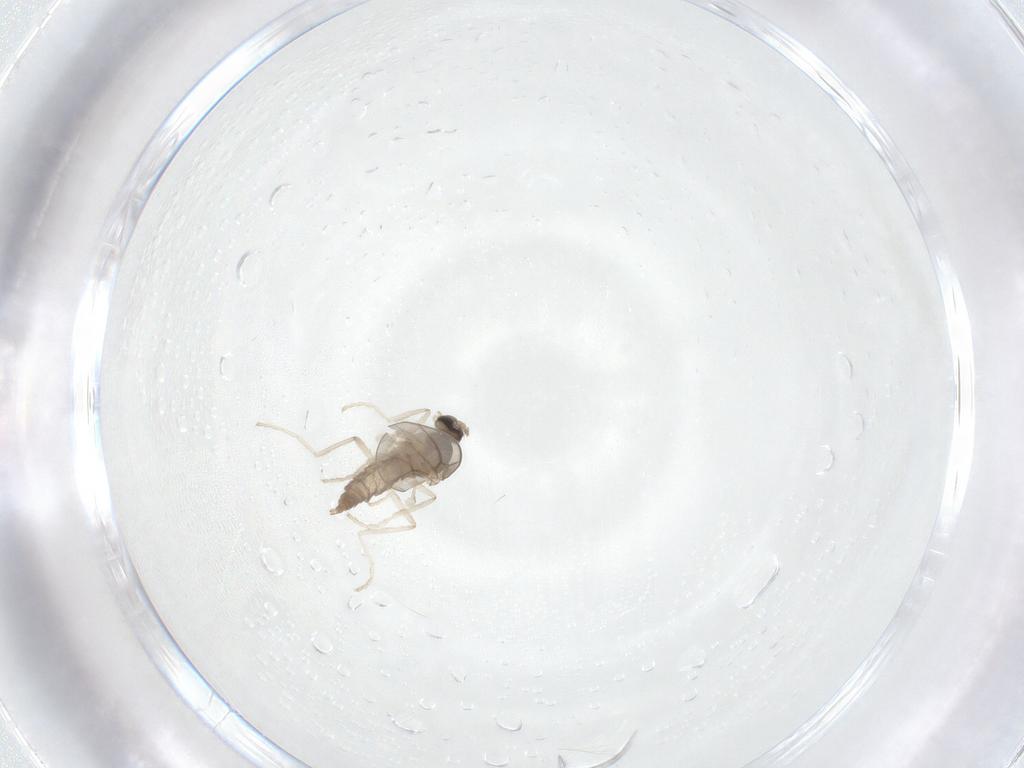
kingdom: Animalia
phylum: Arthropoda
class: Insecta
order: Diptera
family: Cecidomyiidae
